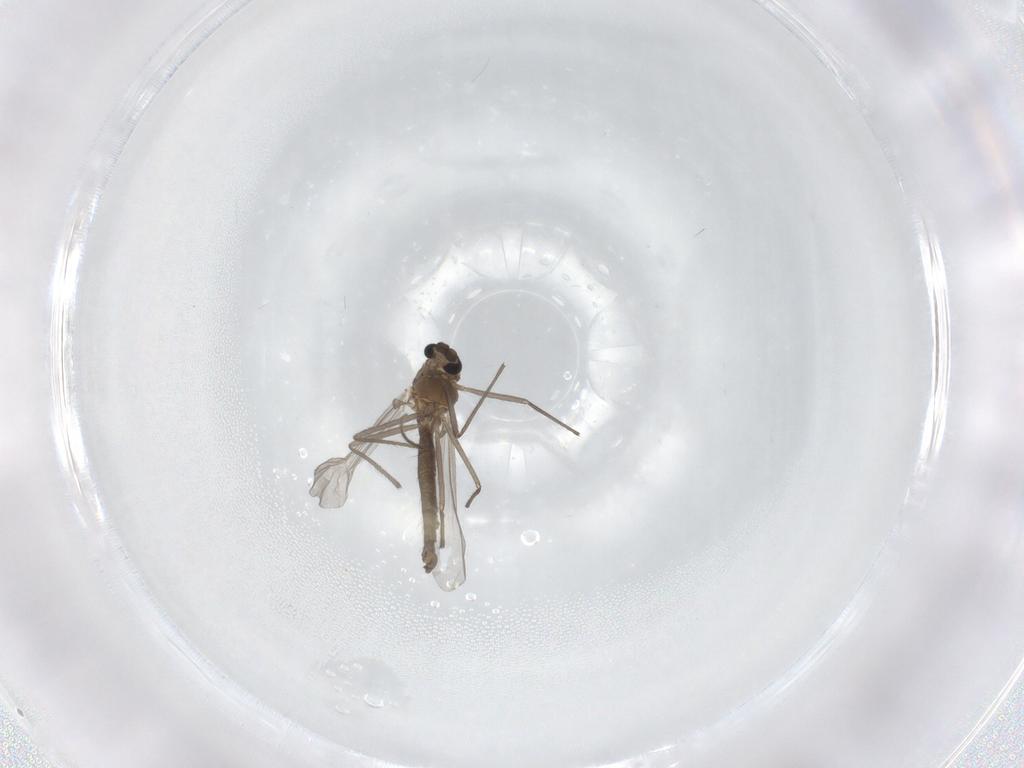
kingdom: Animalia
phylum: Arthropoda
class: Insecta
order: Diptera
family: Chironomidae
